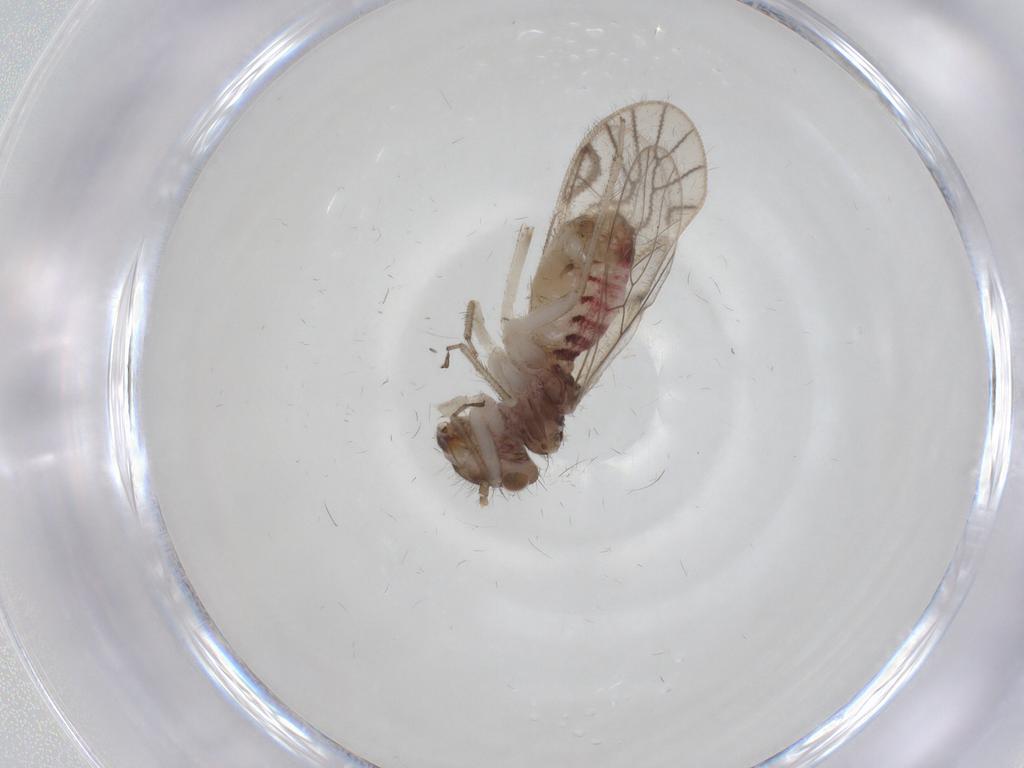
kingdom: Animalia
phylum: Arthropoda
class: Insecta
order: Psocodea
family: Philotarsidae
